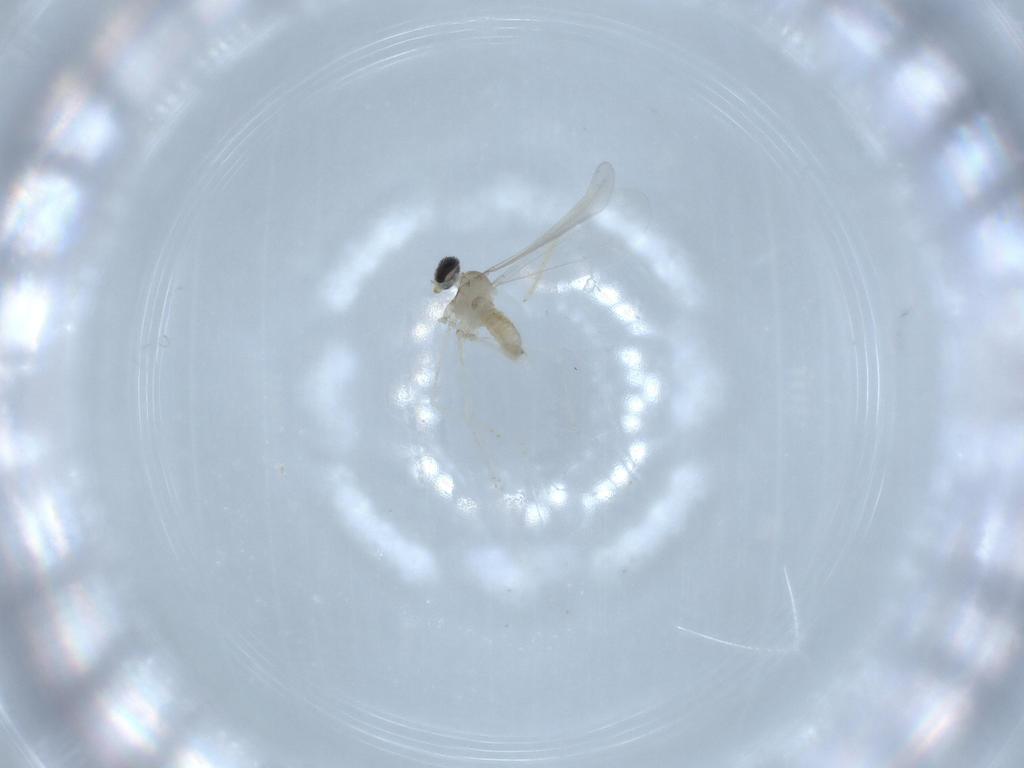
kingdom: Animalia
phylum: Arthropoda
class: Insecta
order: Diptera
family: Cecidomyiidae
